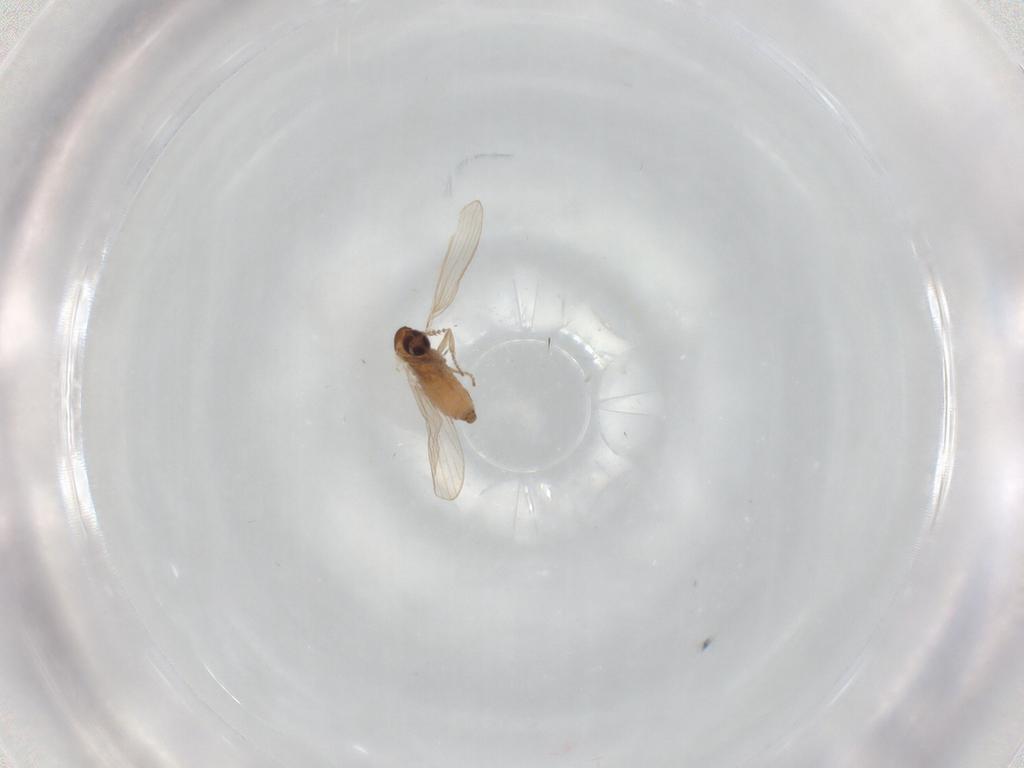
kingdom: Animalia
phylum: Arthropoda
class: Insecta
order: Diptera
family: Psychodidae
